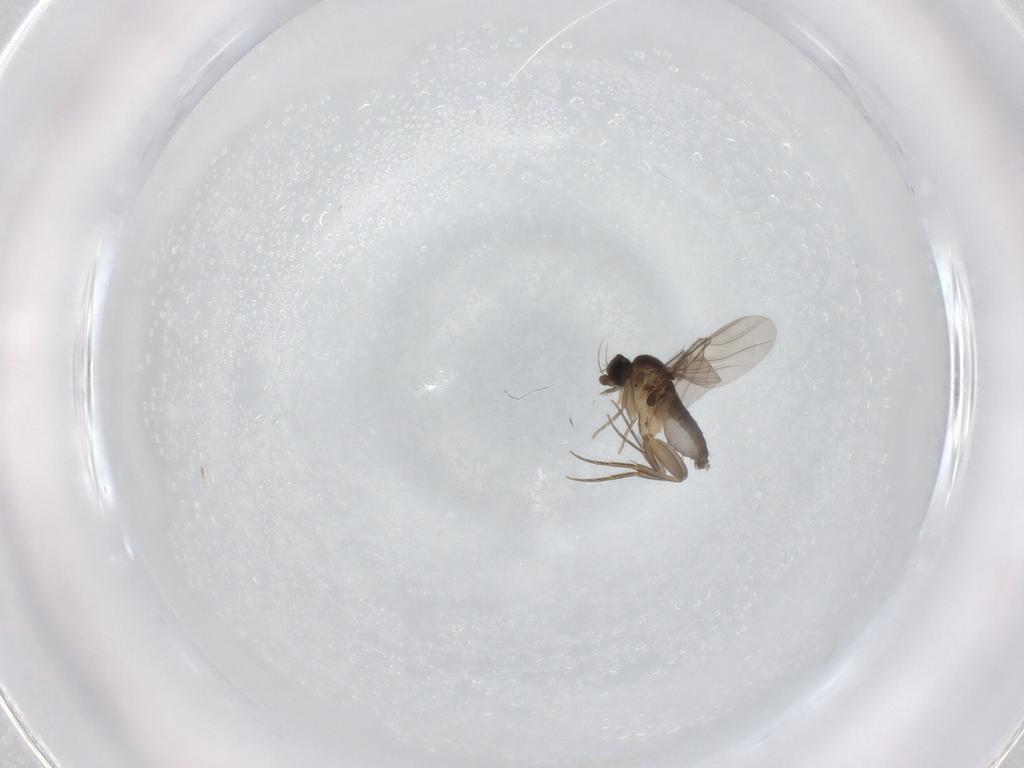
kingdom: Animalia
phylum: Arthropoda
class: Insecta
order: Diptera
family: Phoridae
